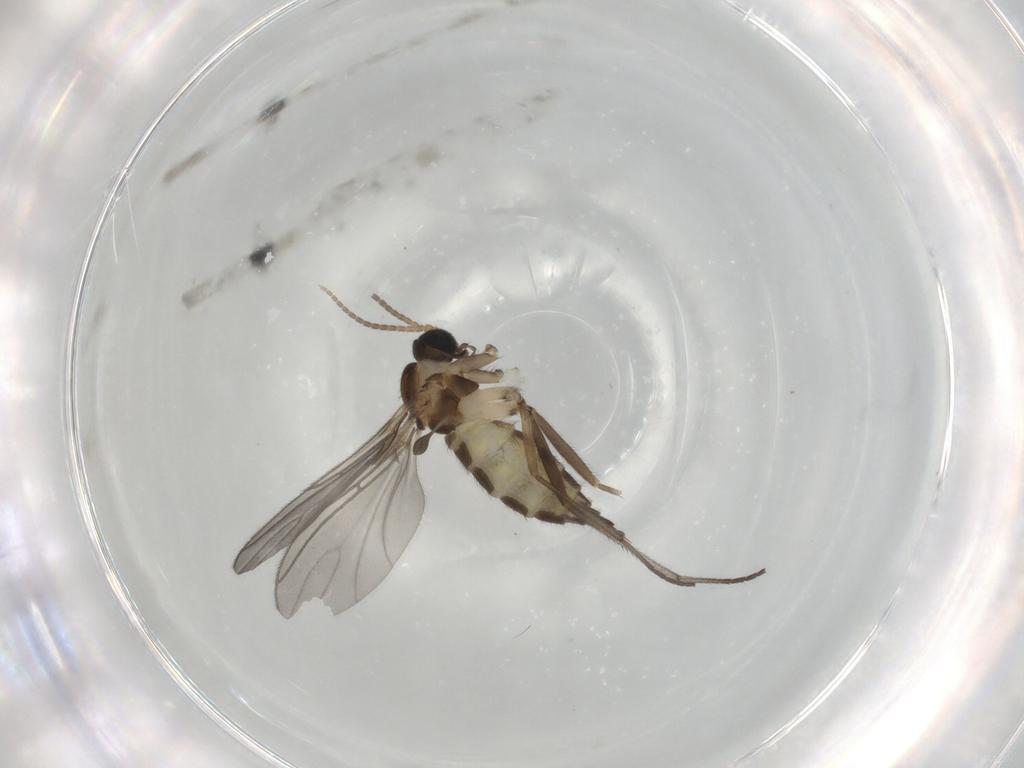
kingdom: Animalia
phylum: Arthropoda
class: Insecta
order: Diptera
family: Sciaridae
